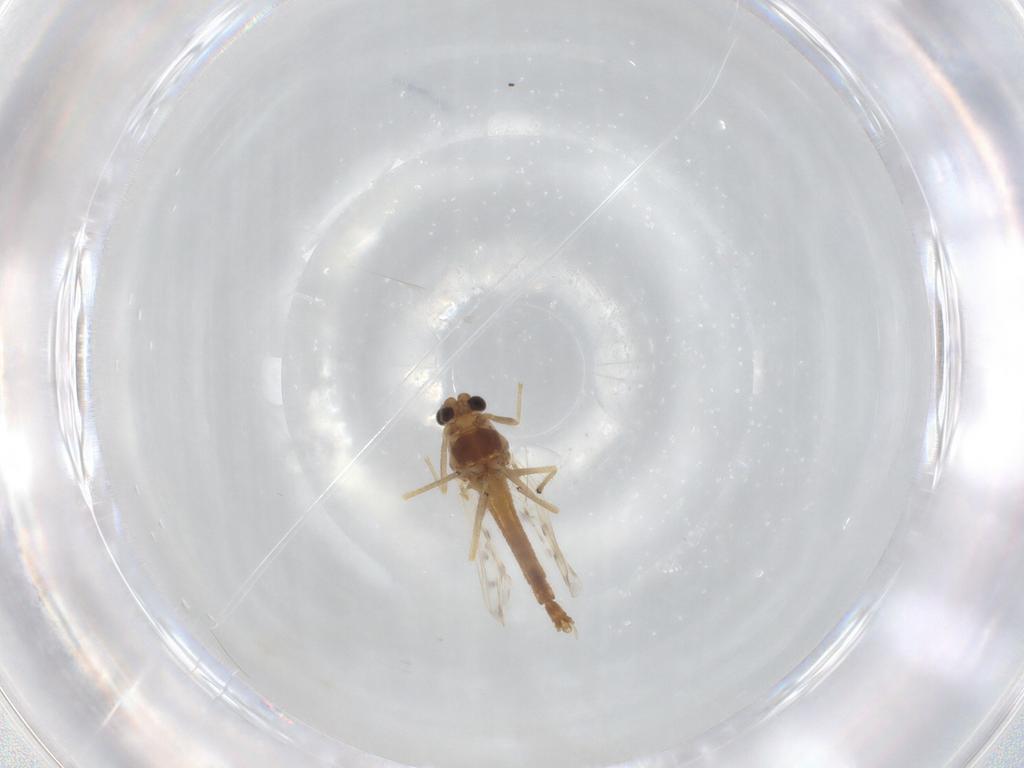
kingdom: Animalia
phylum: Arthropoda
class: Insecta
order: Diptera
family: Chironomidae
